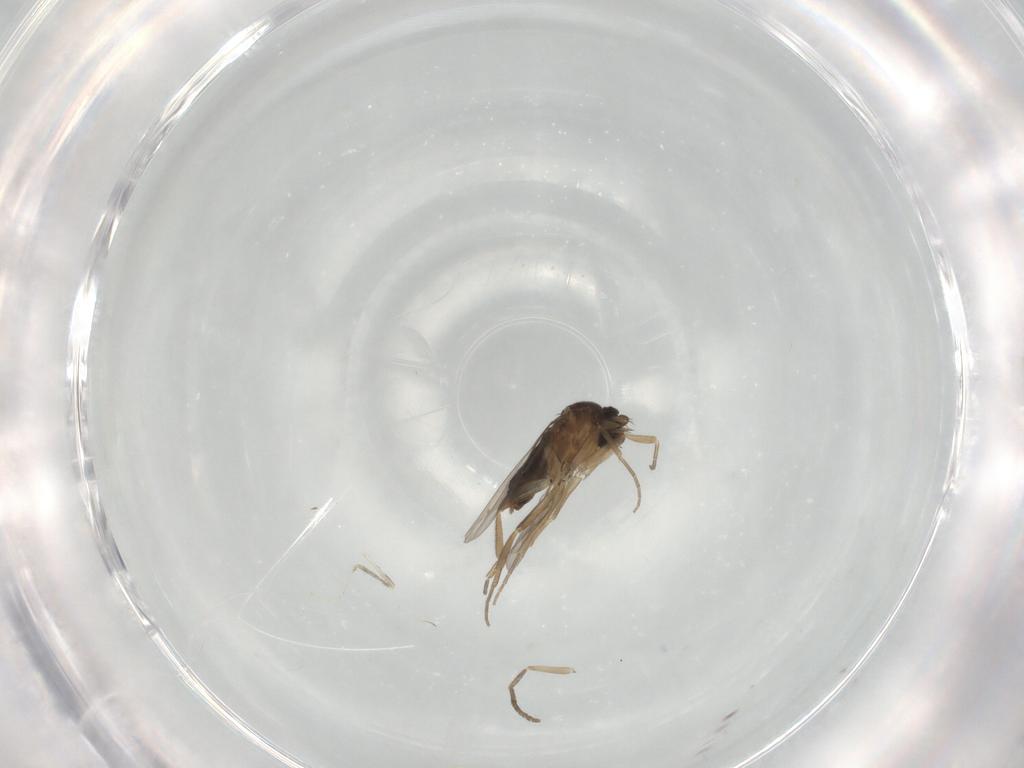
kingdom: Animalia
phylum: Arthropoda
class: Insecta
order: Diptera
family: Phoridae
